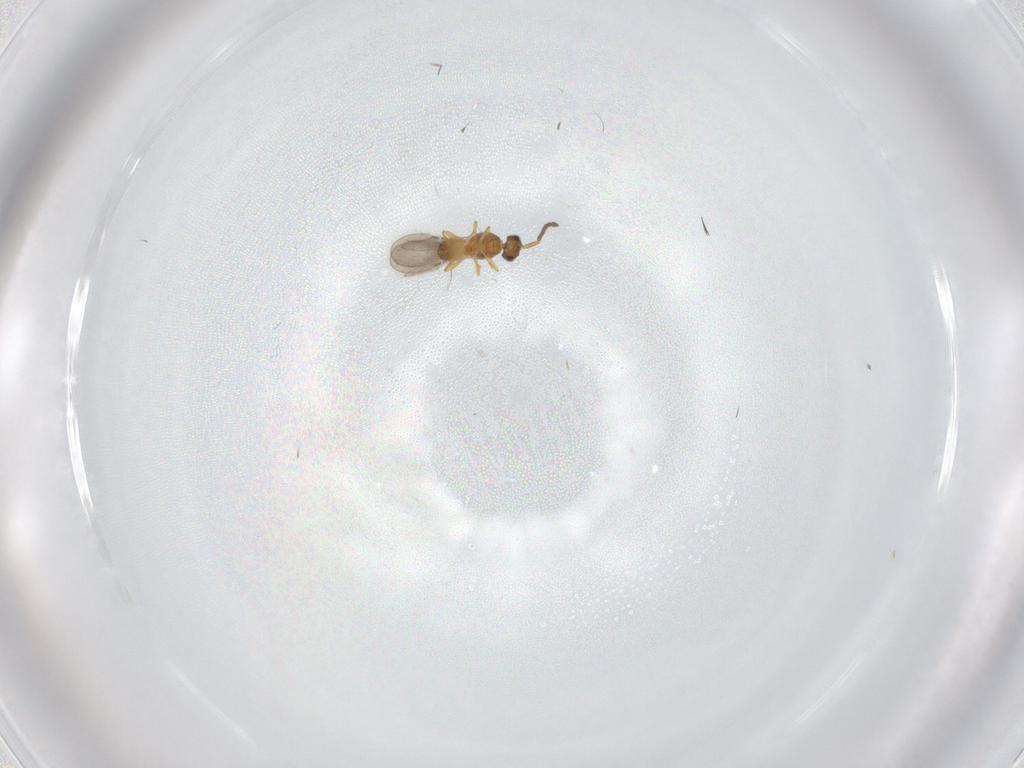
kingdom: Animalia
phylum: Arthropoda
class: Insecta
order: Hymenoptera
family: Ceraphronidae
